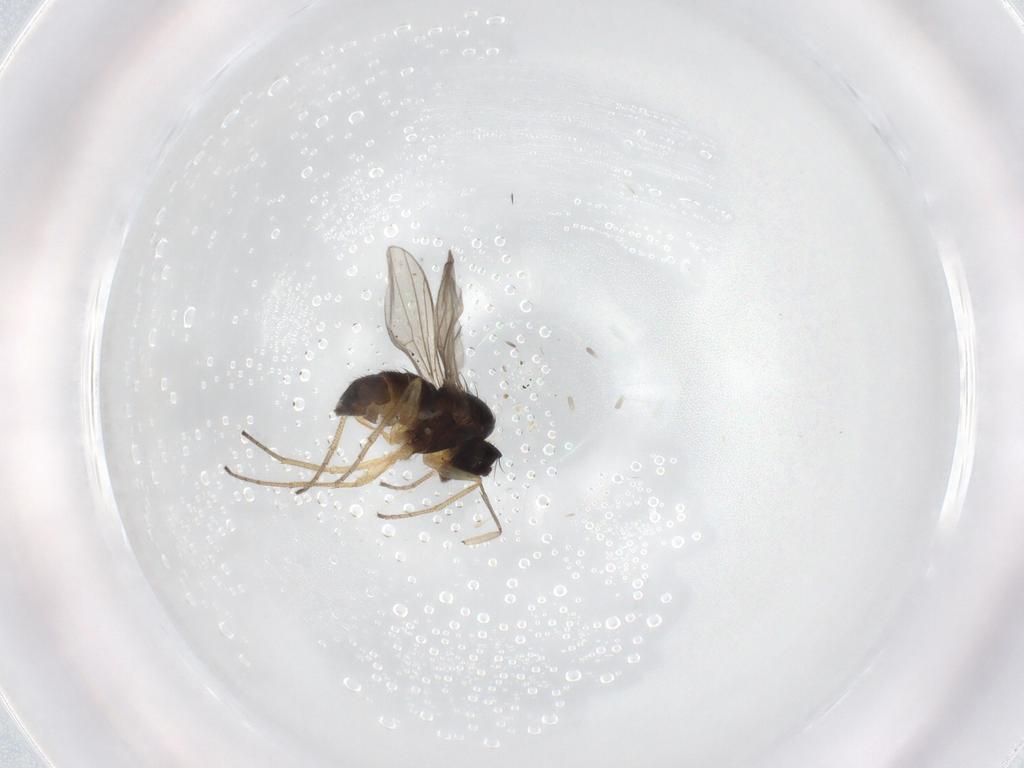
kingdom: Animalia
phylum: Arthropoda
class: Insecta
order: Diptera
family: Dolichopodidae
